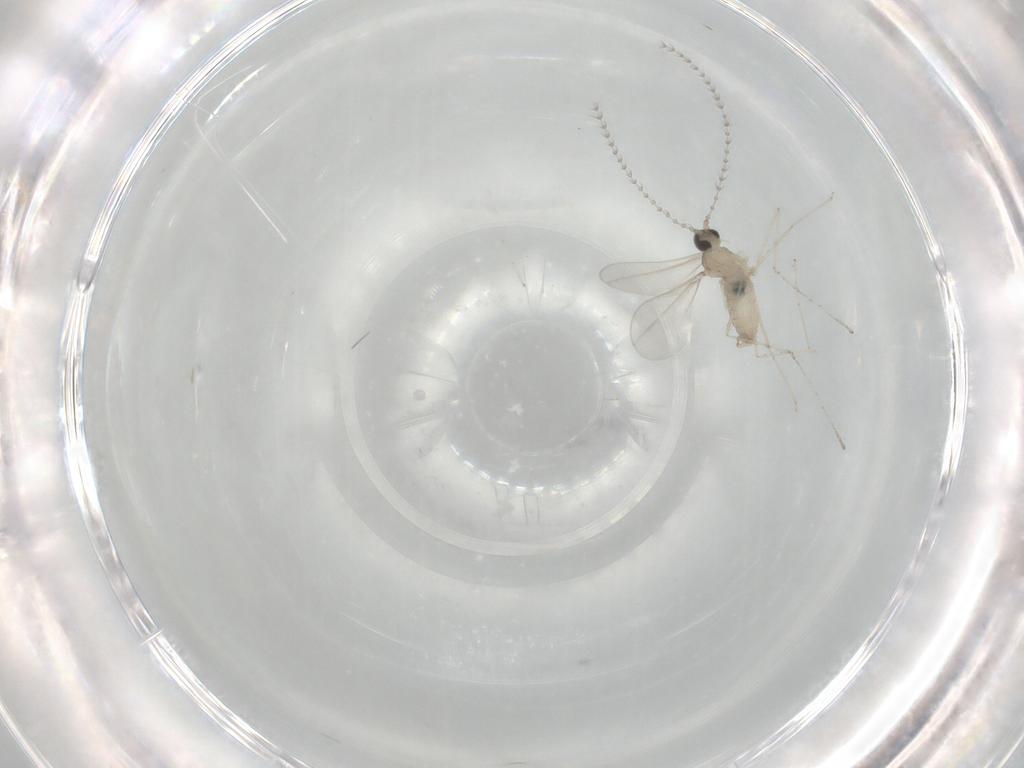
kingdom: Animalia
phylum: Arthropoda
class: Insecta
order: Diptera
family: Cecidomyiidae
